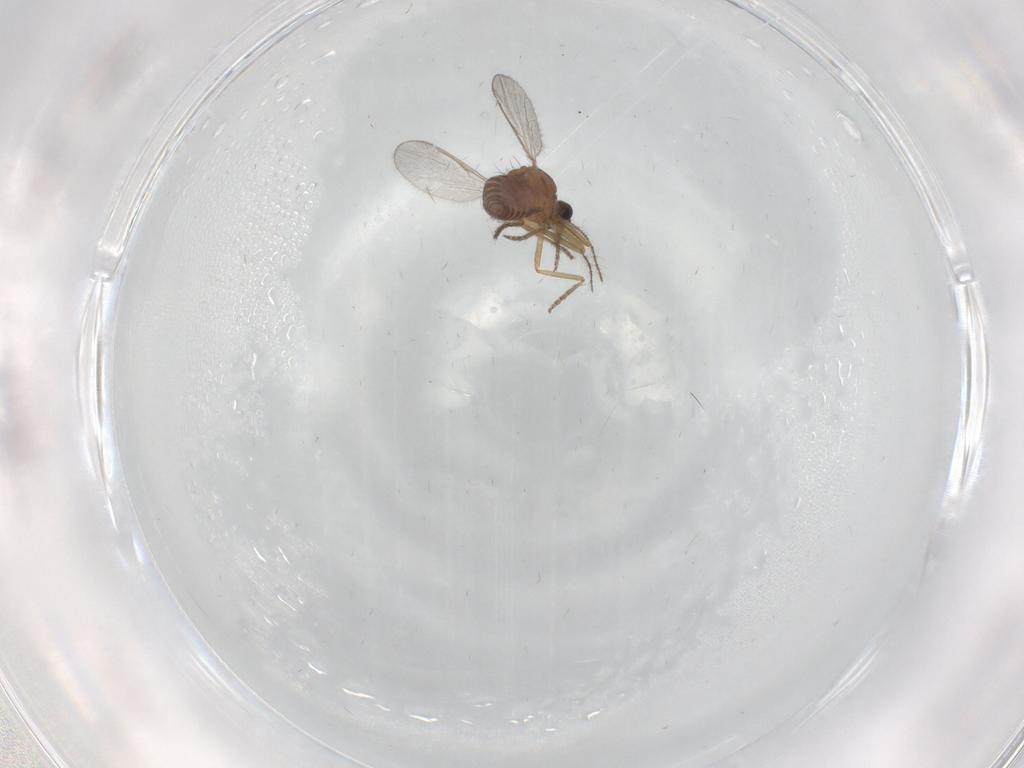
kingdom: Animalia
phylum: Arthropoda
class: Insecta
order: Diptera
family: Ceratopogonidae
